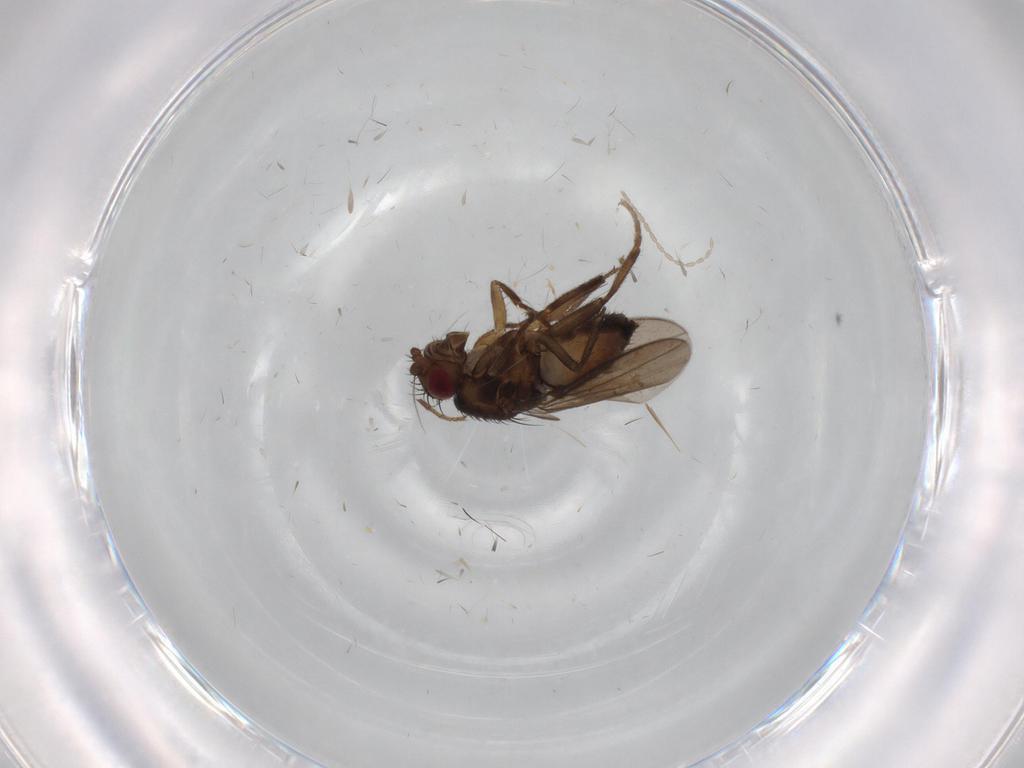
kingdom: Animalia
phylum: Arthropoda
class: Insecta
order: Diptera
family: Cecidomyiidae
